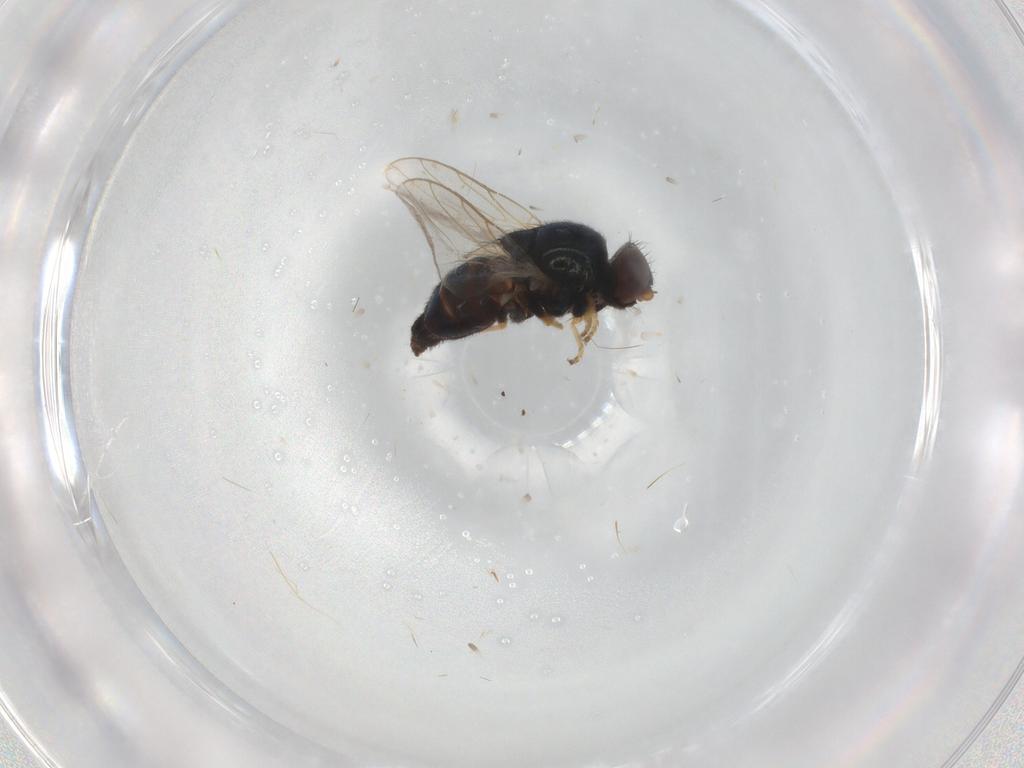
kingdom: Animalia
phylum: Arthropoda
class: Insecta
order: Diptera
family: Chloropidae
